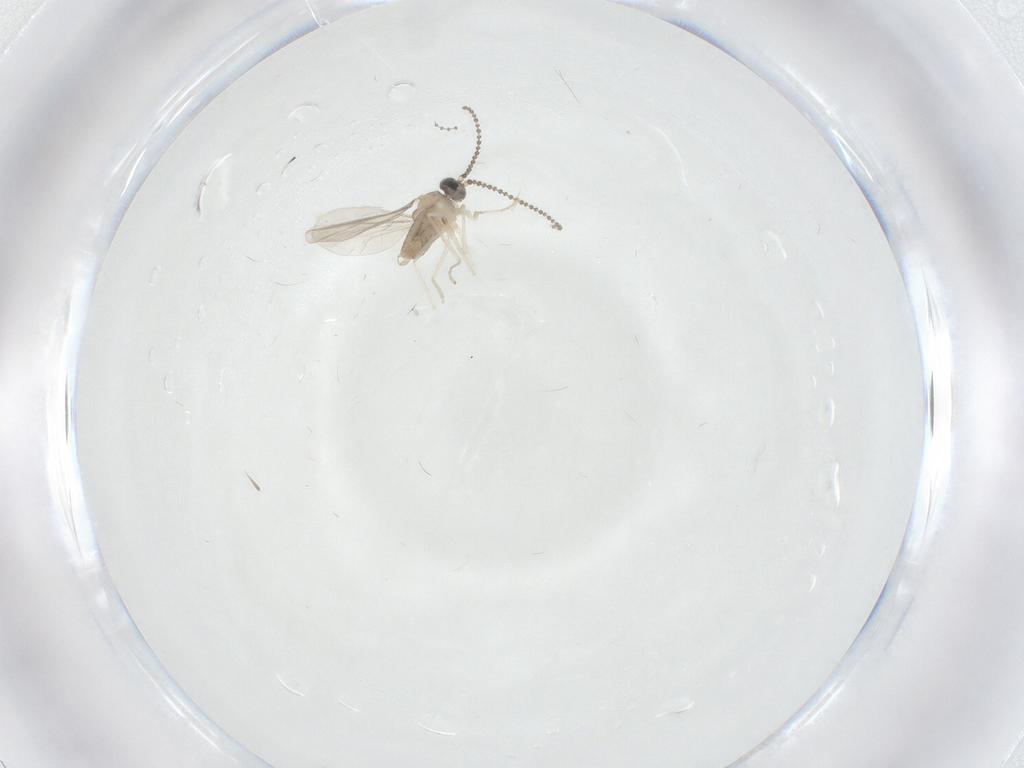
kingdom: Animalia
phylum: Arthropoda
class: Insecta
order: Diptera
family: Cecidomyiidae
